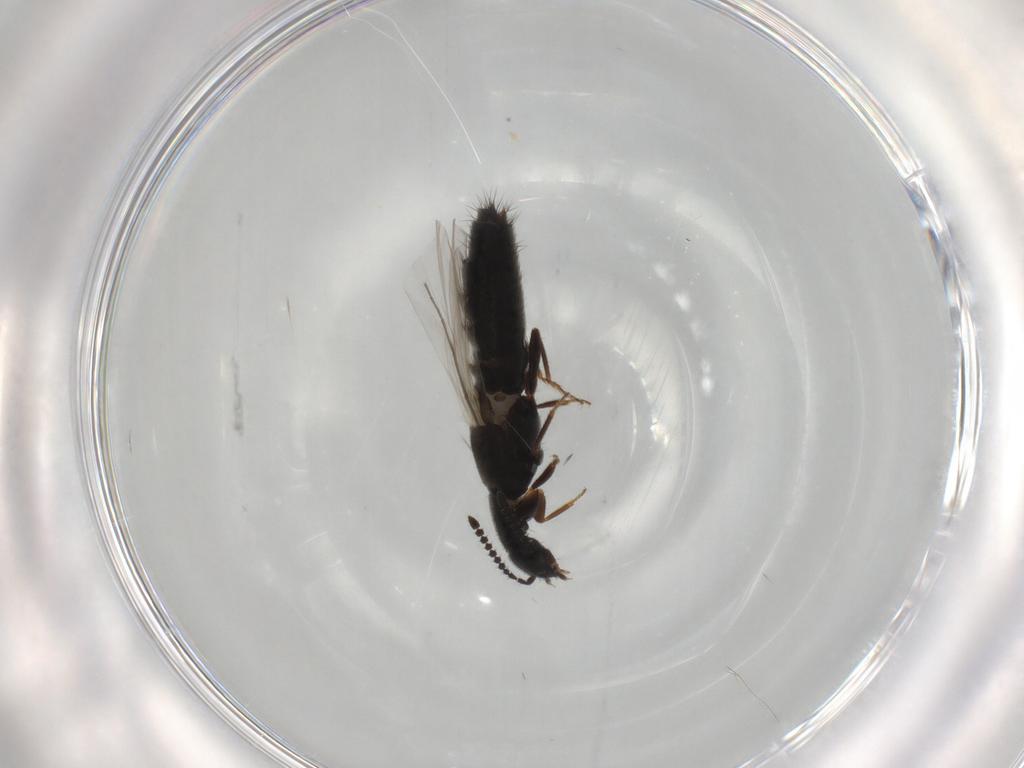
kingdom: Animalia
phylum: Arthropoda
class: Insecta
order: Coleoptera
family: Staphylinidae
